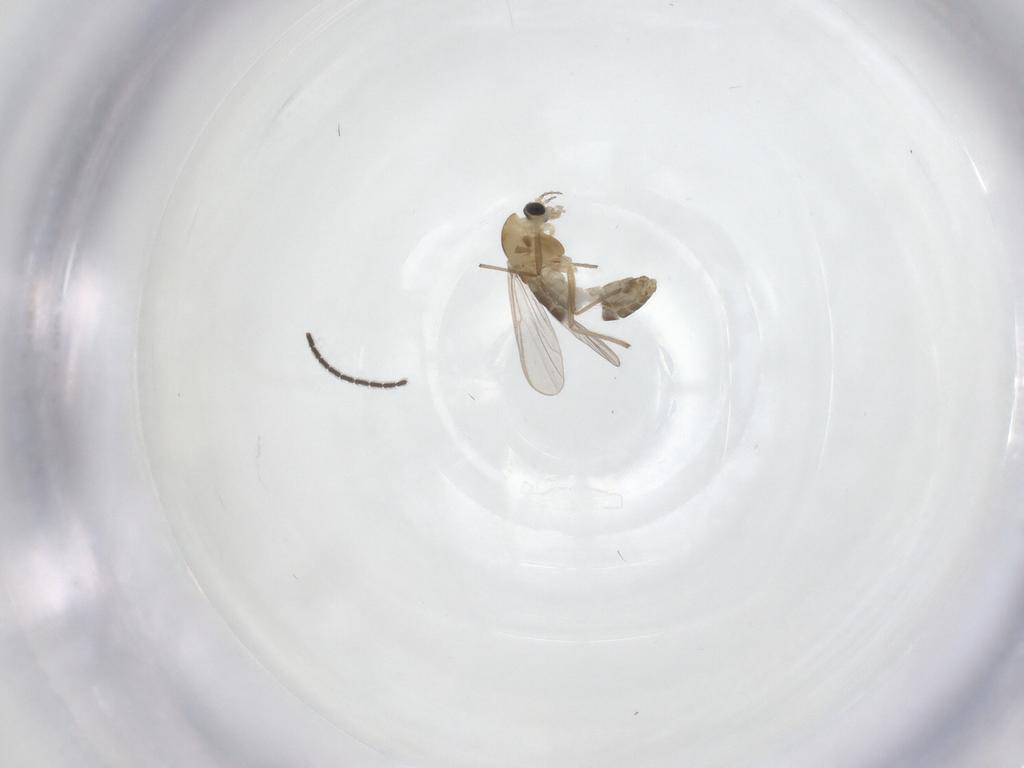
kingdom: Animalia
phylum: Arthropoda
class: Insecta
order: Diptera
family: Chironomidae
